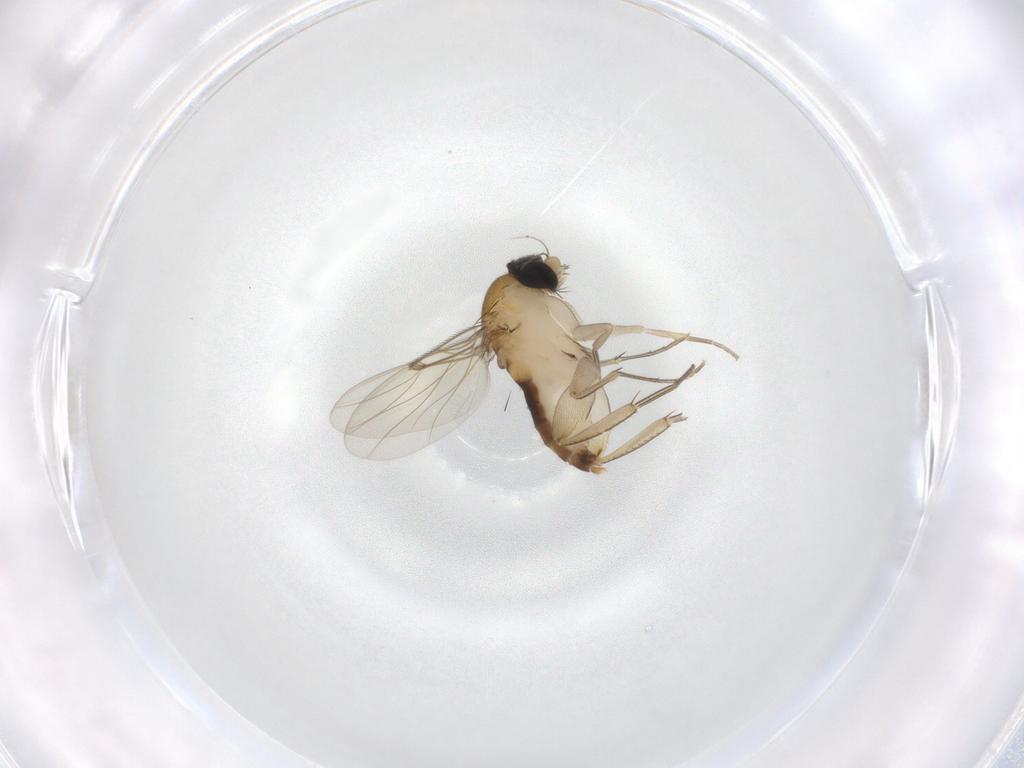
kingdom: Animalia
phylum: Arthropoda
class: Insecta
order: Diptera
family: Phoridae
